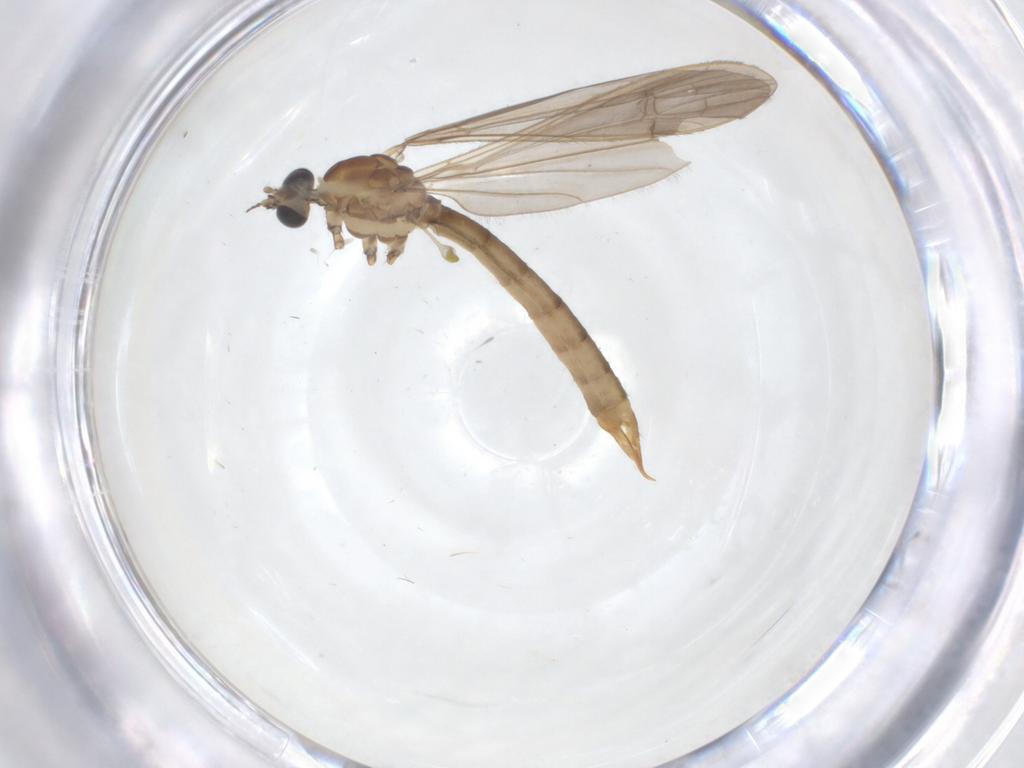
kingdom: Animalia
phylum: Arthropoda
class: Insecta
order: Diptera
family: Limoniidae
